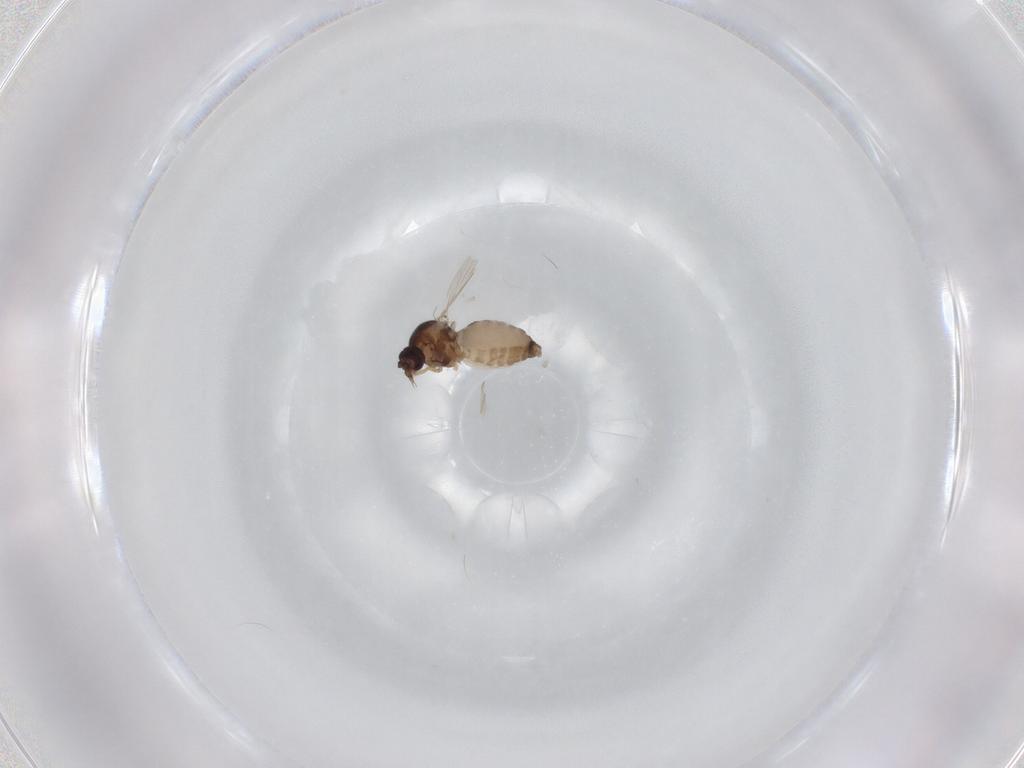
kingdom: Animalia
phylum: Arthropoda
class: Insecta
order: Diptera
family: Ceratopogonidae
